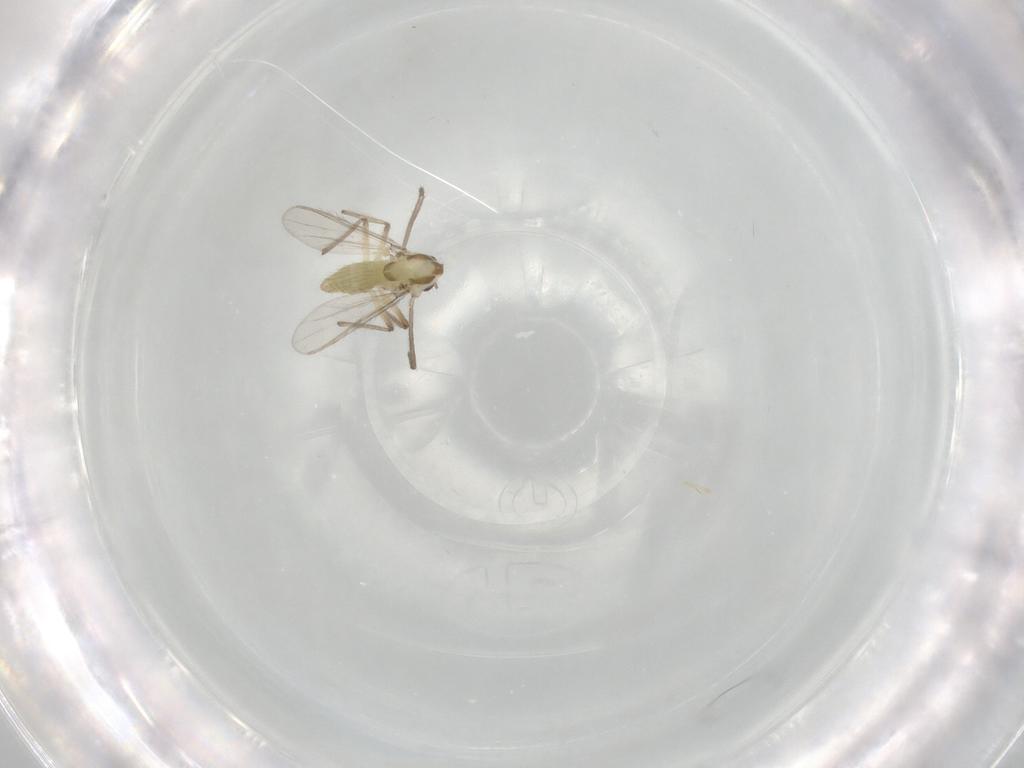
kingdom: Animalia
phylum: Arthropoda
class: Insecta
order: Diptera
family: Chironomidae
